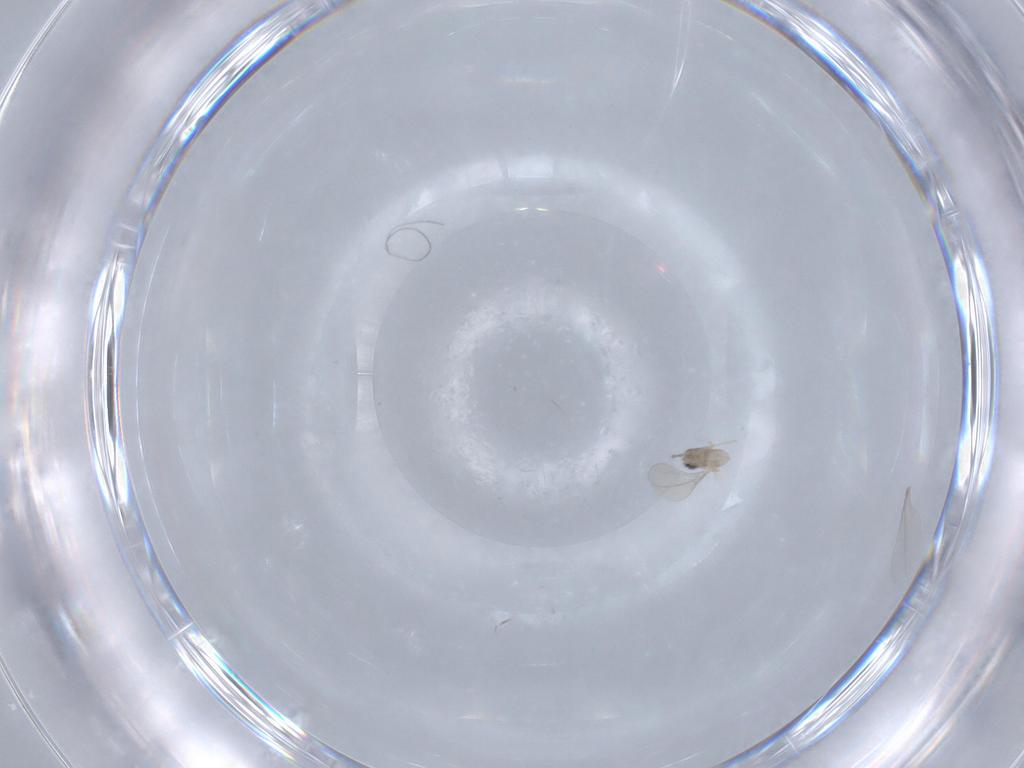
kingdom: Animalia
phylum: Arthropoda
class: Insecta
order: Diptera
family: Cecidomyiidae
